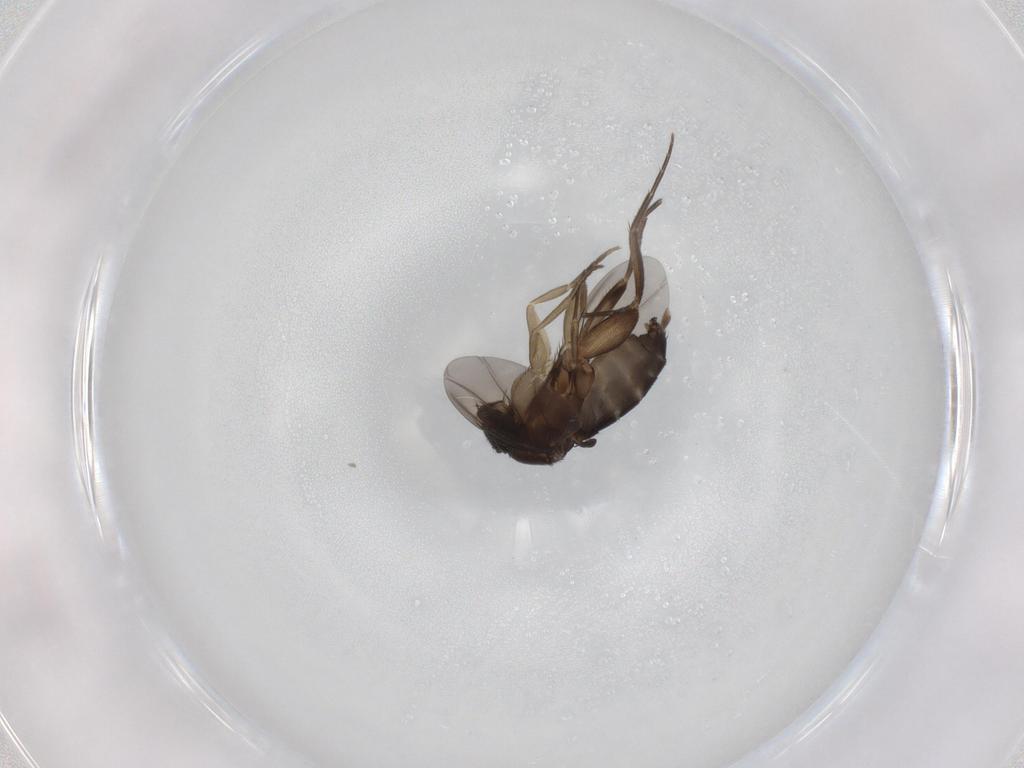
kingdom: Animalia
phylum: Arthropoda
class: Insecta
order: Diptera
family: Phoridae
